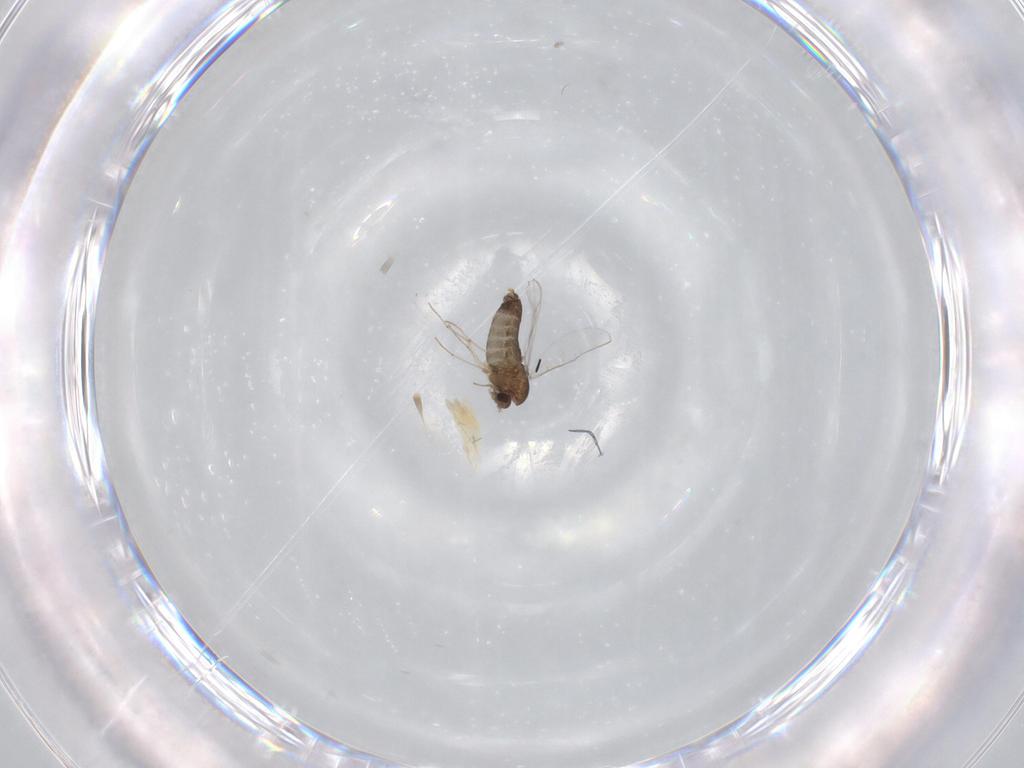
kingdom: Animalia
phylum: Arthropoda
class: Insecta
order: Diptera
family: Chironomidae
